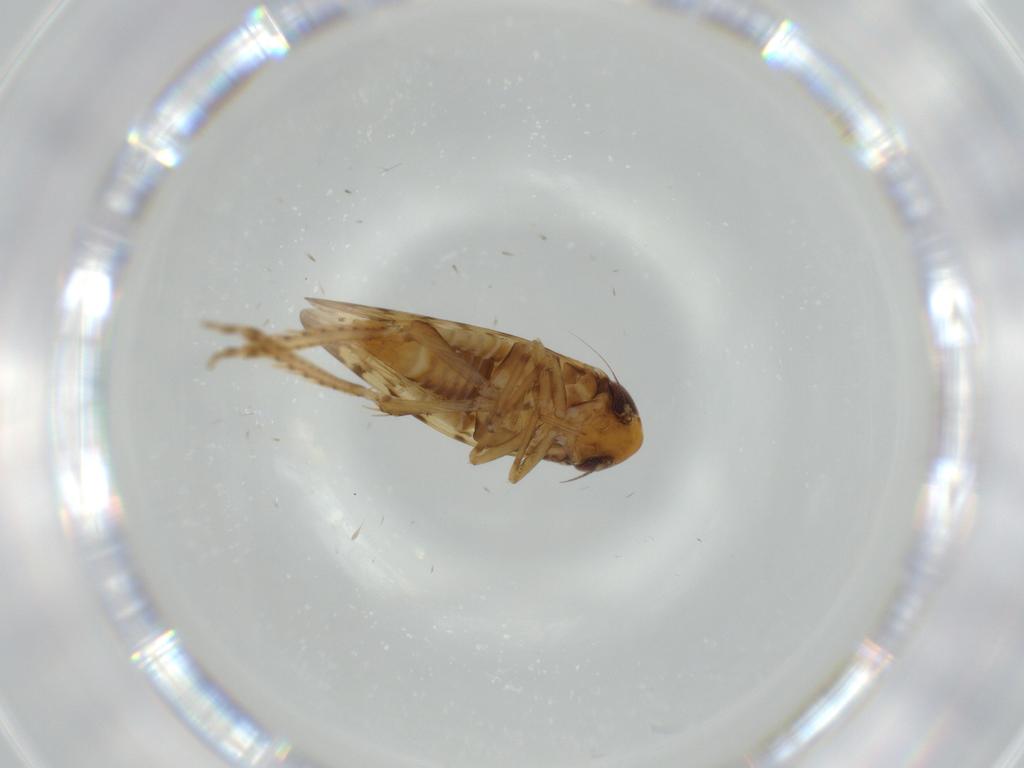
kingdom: Animalia
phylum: Arthropoda
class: Insecta
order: Hemiptera
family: Cicadellidae
